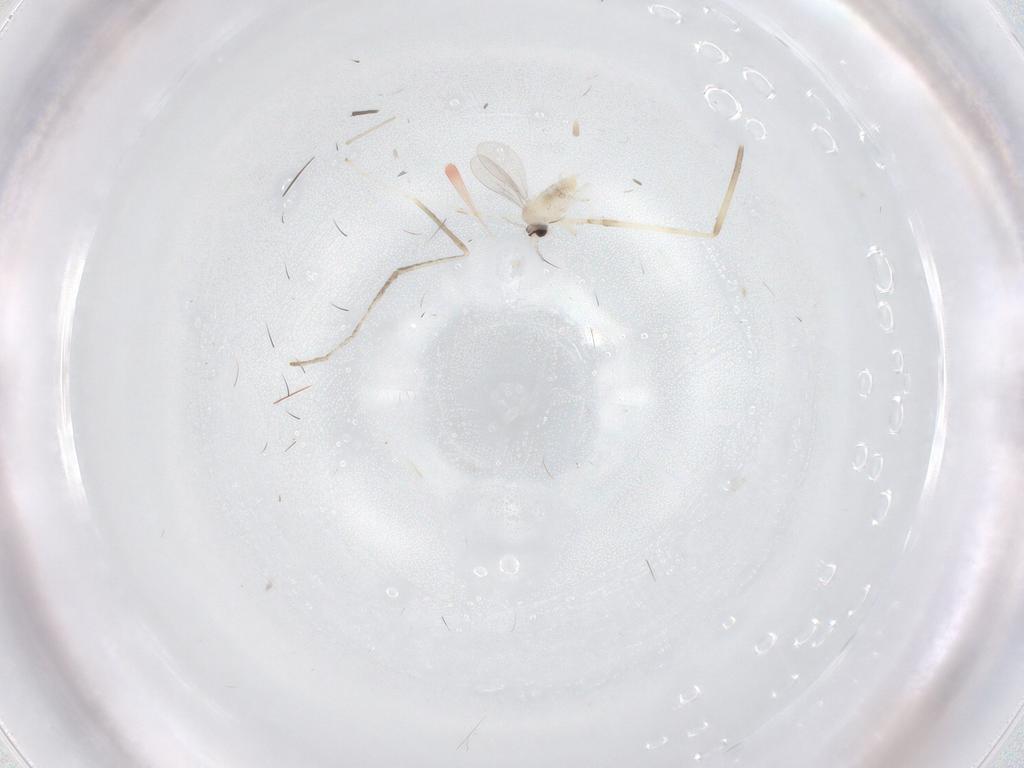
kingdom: Animalia
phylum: Arthropoda
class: Insecta
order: Diptera
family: Cecidomyiidae
